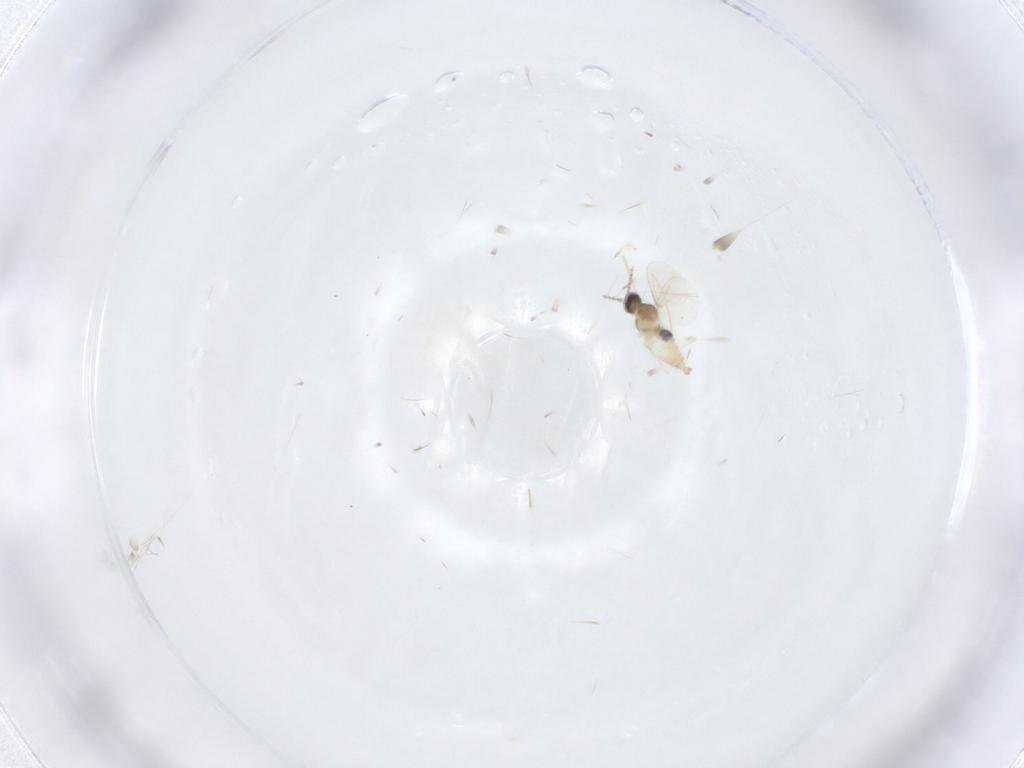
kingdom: Animalia
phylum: Arthropoda
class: Insecta
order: Diptera
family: Cecidomyiidae
